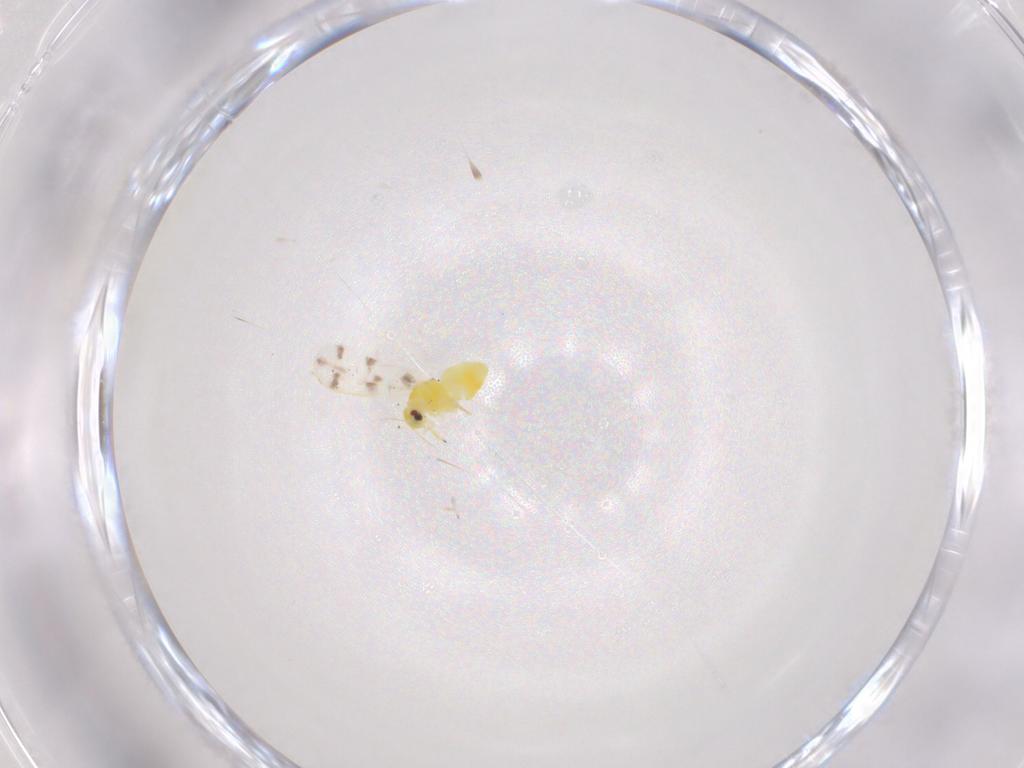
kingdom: Animalia
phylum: Arthropoda
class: Insecta
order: Hemiptera
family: Aleyrodidae
